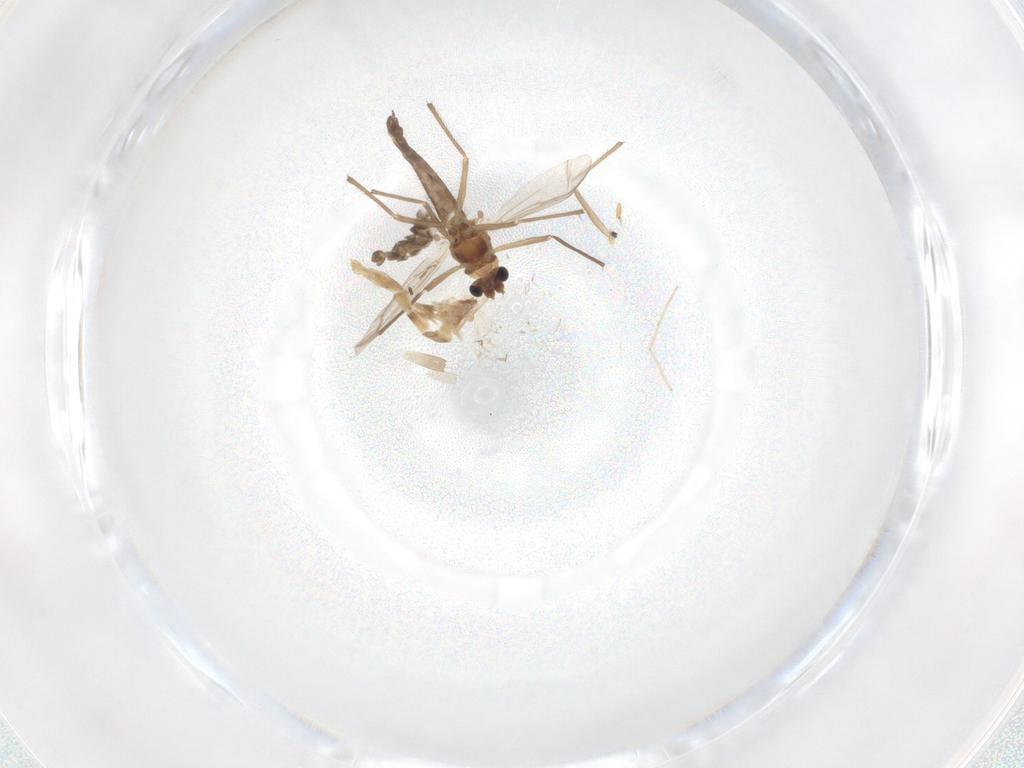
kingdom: Animalia
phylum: Arthropoda
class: Insecta
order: Diptera
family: Chironomidae
